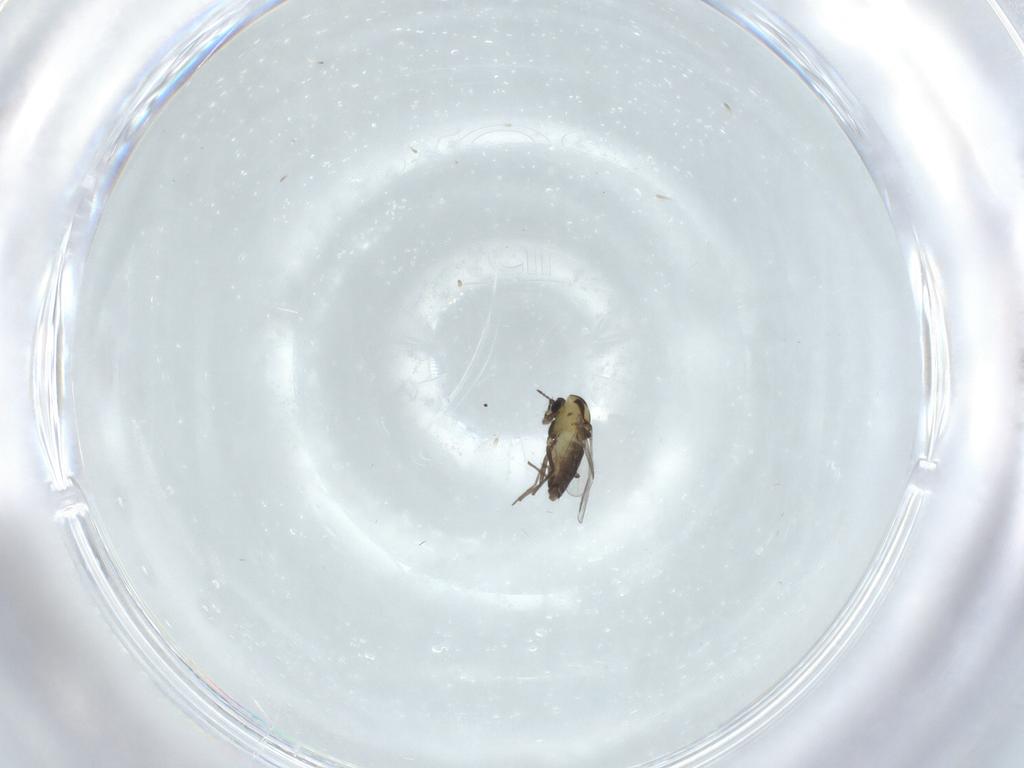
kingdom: Animalia
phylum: Arthropoda
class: Insecta
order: Diptera
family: Chironomidae
